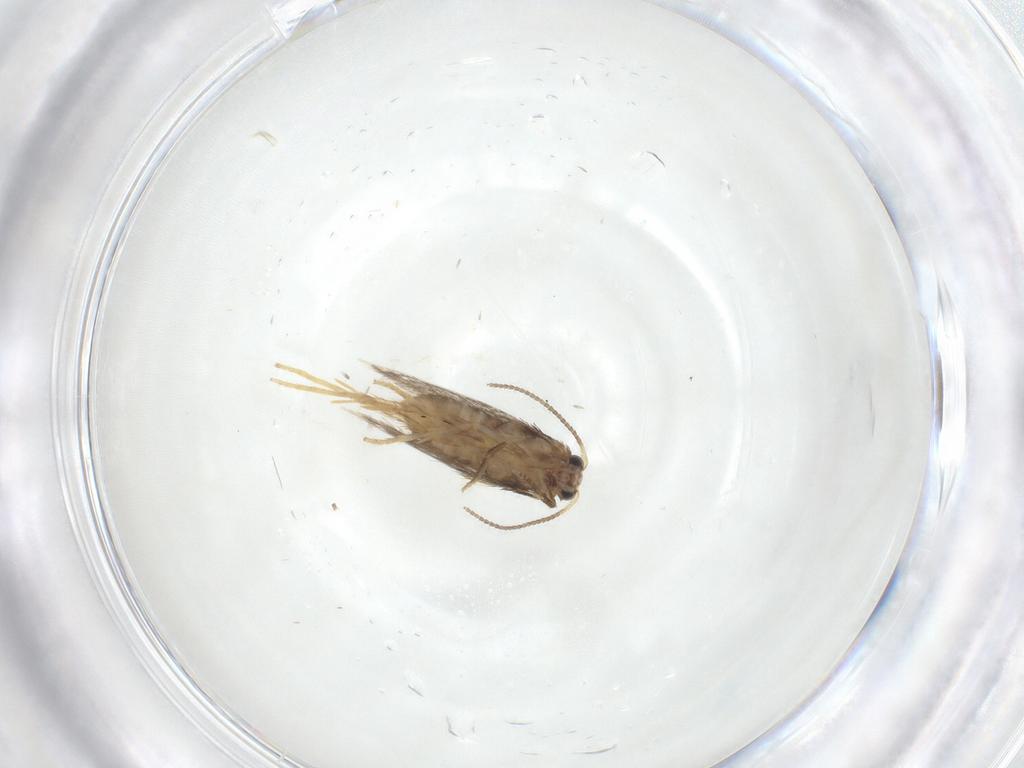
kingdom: Animalia
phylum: Arthropoda
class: Insecta
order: Lepidoptera
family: Nepticulidae
